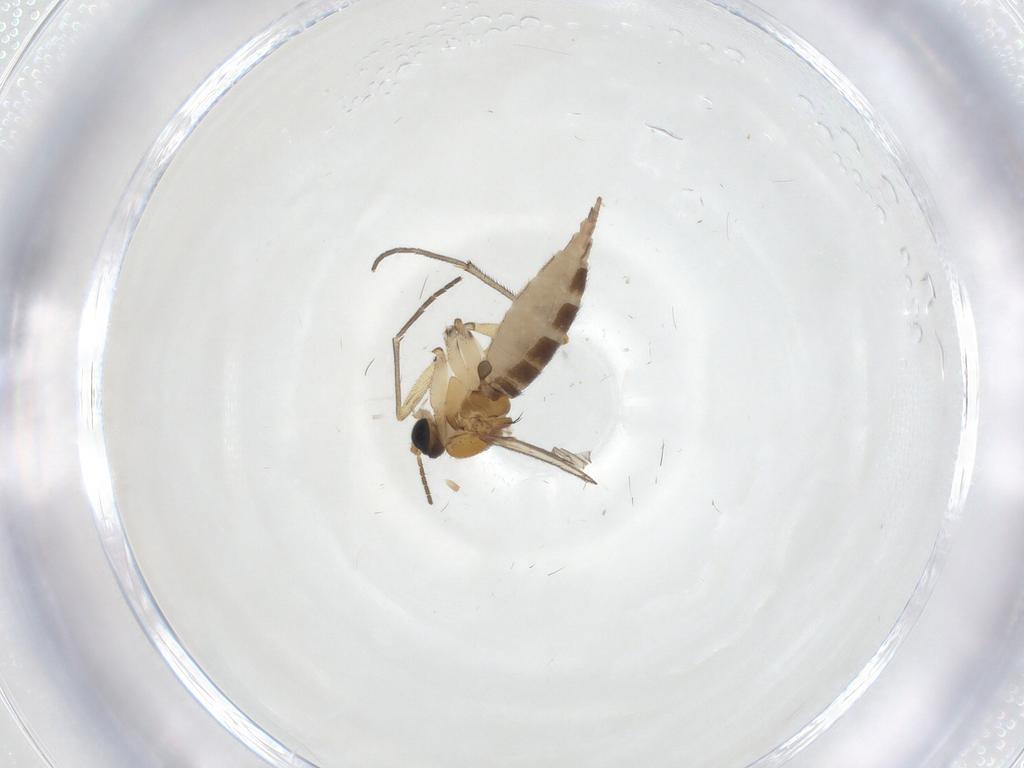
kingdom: Animalia
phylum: Arthropoda
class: Insecta
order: Diptera
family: Sciaridae
